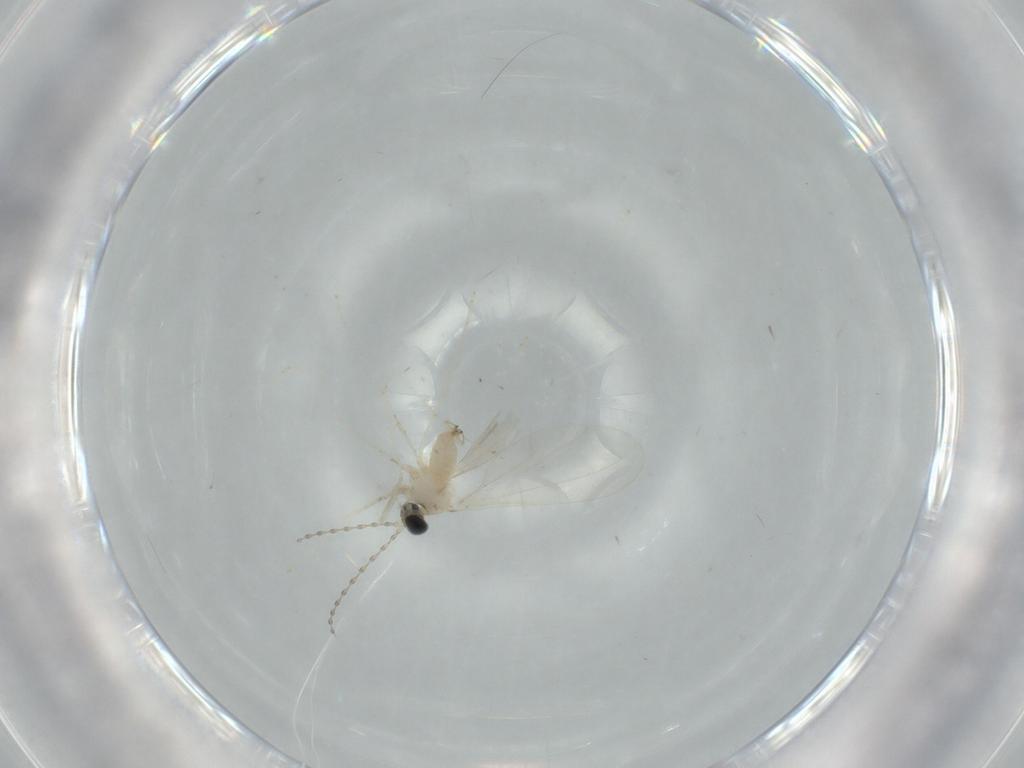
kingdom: Animalia
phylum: Arthropoda
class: Insecta
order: Diptera
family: Cecidomyiidae
